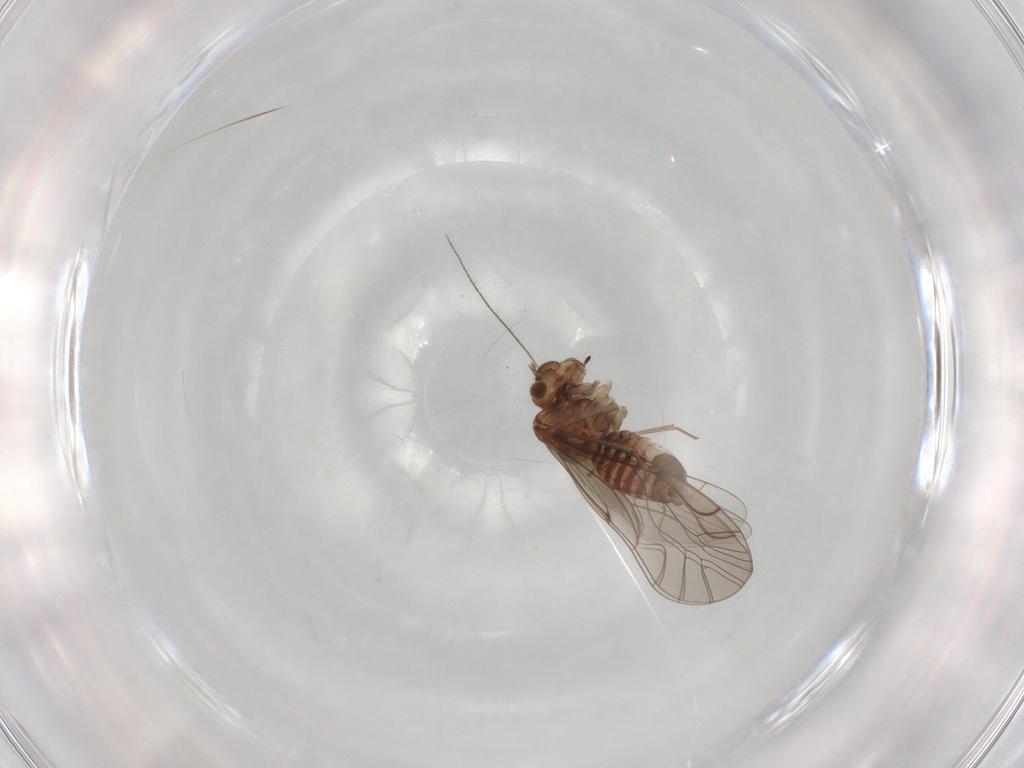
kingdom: Animalia
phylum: Arthropoda
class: Insecta
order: Psocodea
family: Lachesillidae
